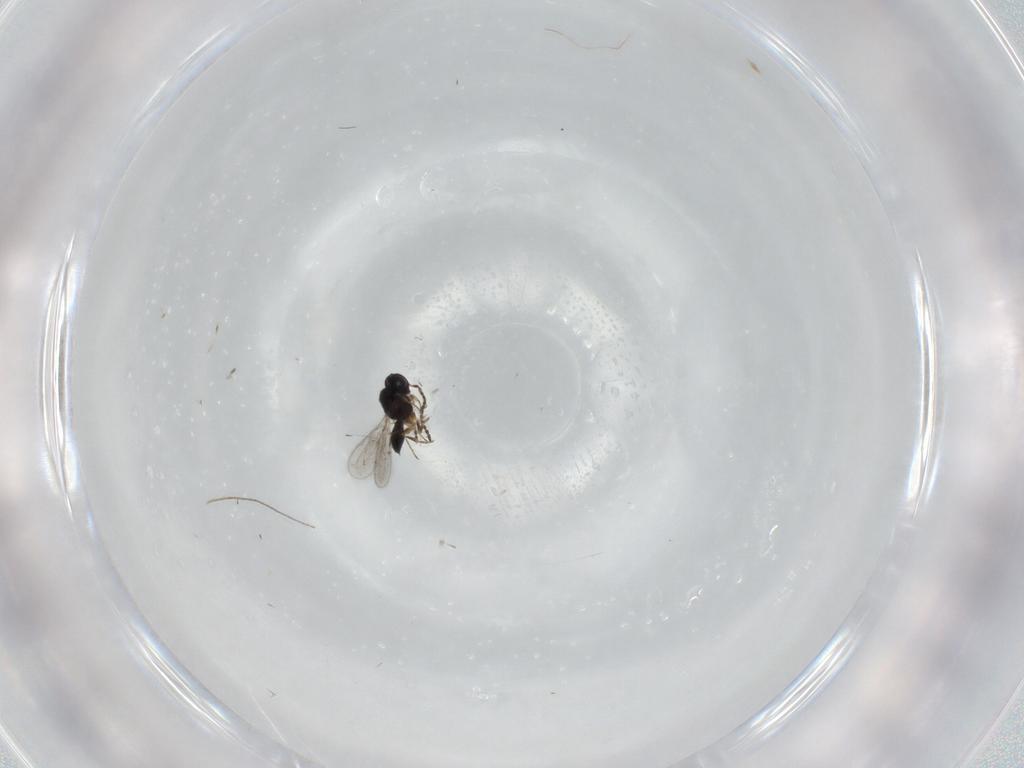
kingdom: Animalia
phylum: Arthropoda
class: Insecta
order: Hymenoptera
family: Scelionidae
